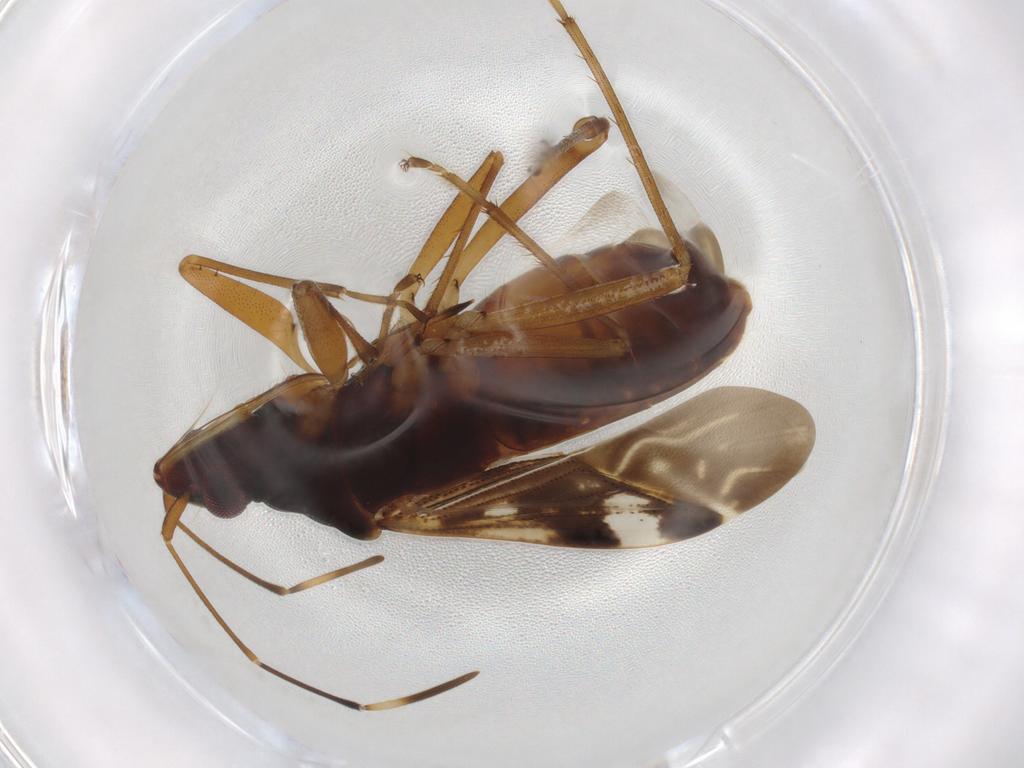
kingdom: Animalia
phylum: Arthropoda
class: Insecta
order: Hemiptera
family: Rhyparochromidae
